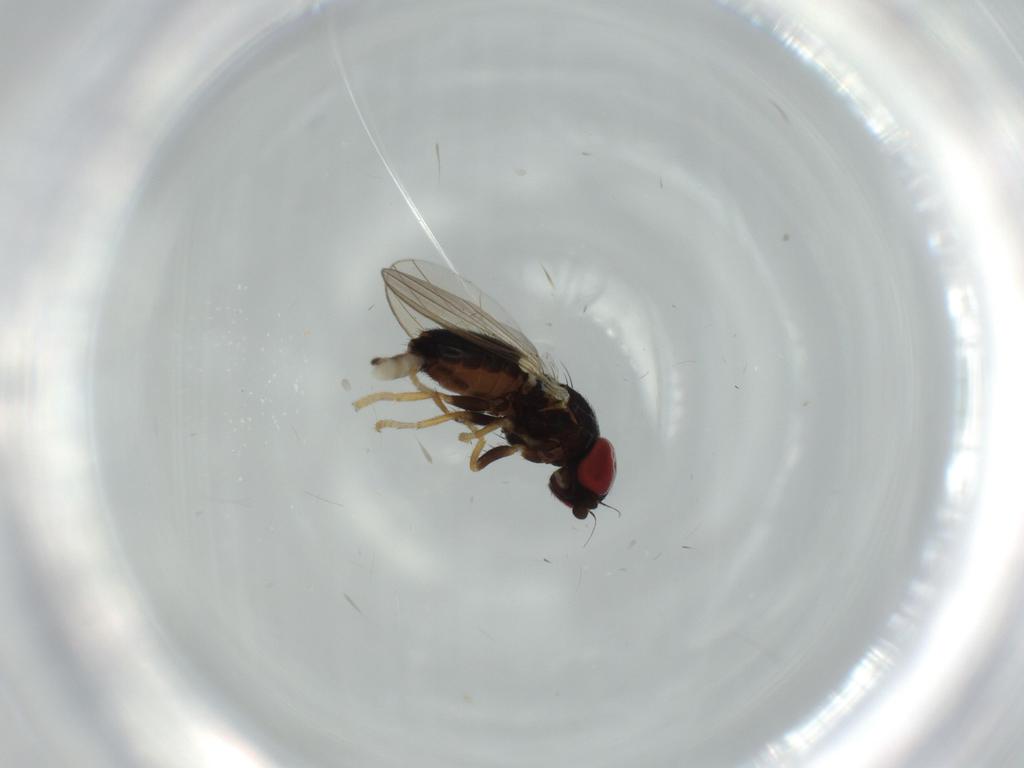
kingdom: Animalia
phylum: Arthropoda
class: Insecta
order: Diptera
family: Chamaemyiidae
